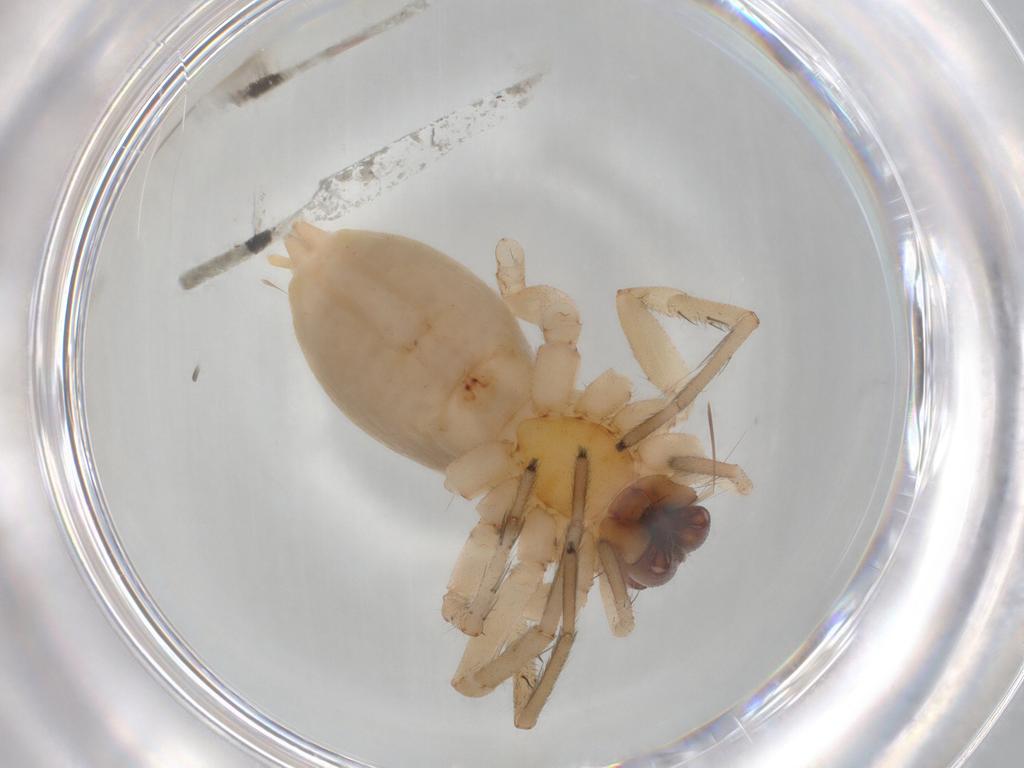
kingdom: Animalia
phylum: Arthropoda
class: Arachnida
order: Araneae
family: Anyphaenidae
